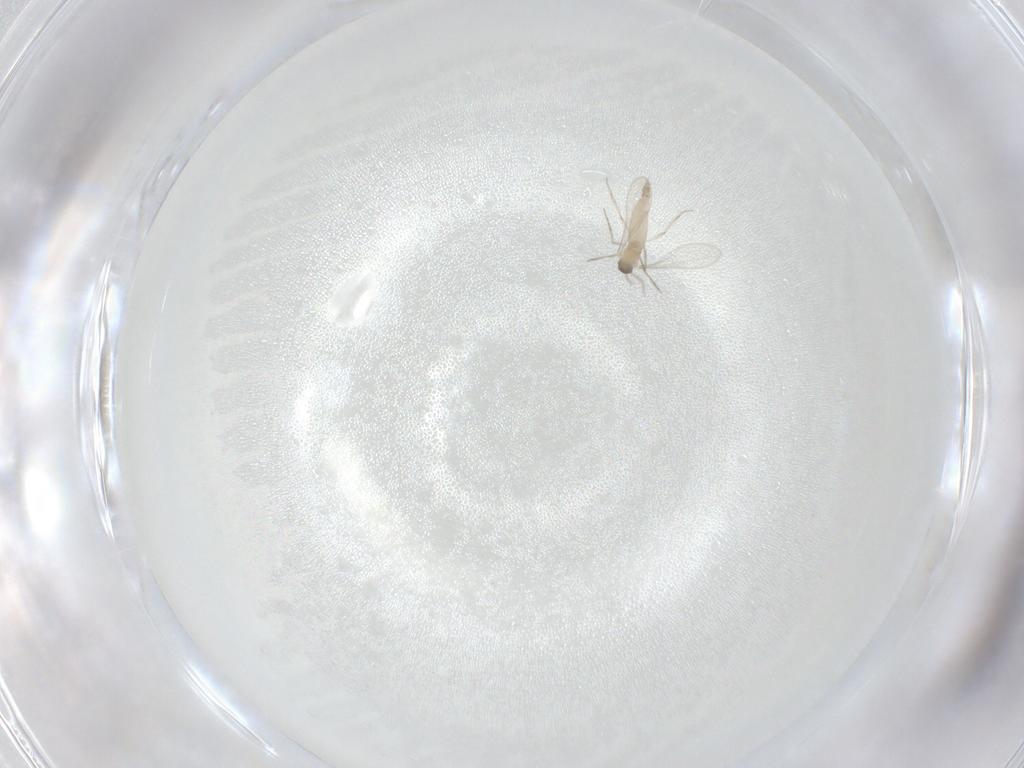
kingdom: Animalia
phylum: Arthropoda
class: Insecta
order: Diptera
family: Cecidomyiidae
